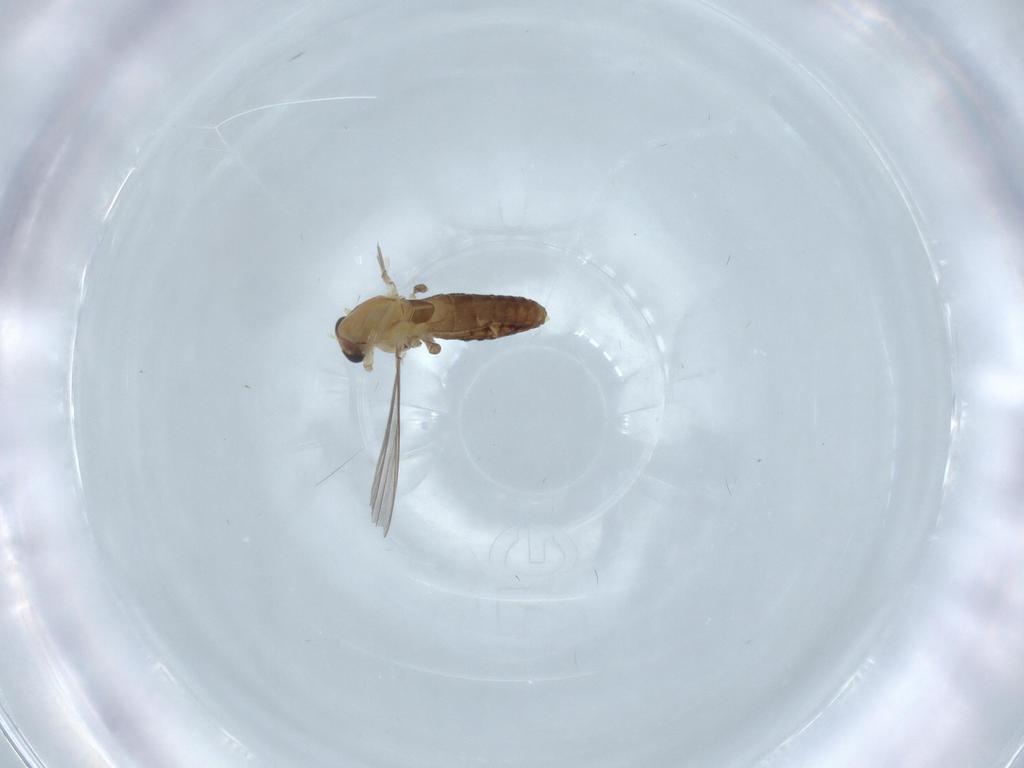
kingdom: Animalia
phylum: Arthropoda
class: Insecta
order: Diptera
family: Chironomidae
